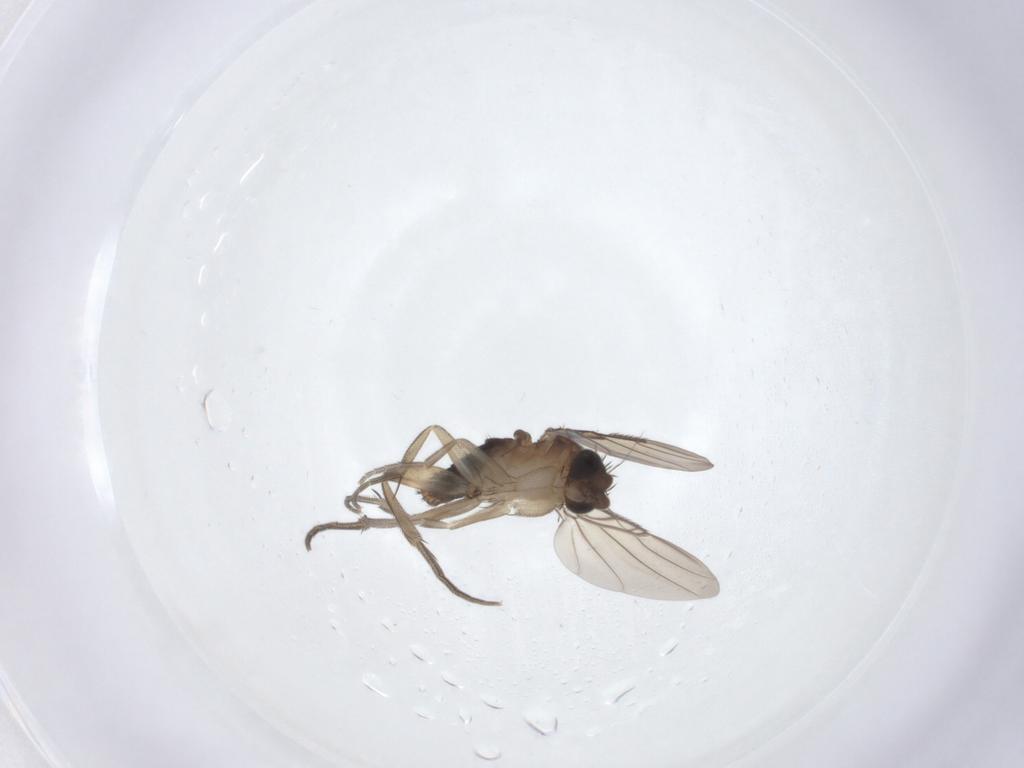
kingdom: Animalia
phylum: Arthropoda
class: Insecta
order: Diptera
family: Phoridae
